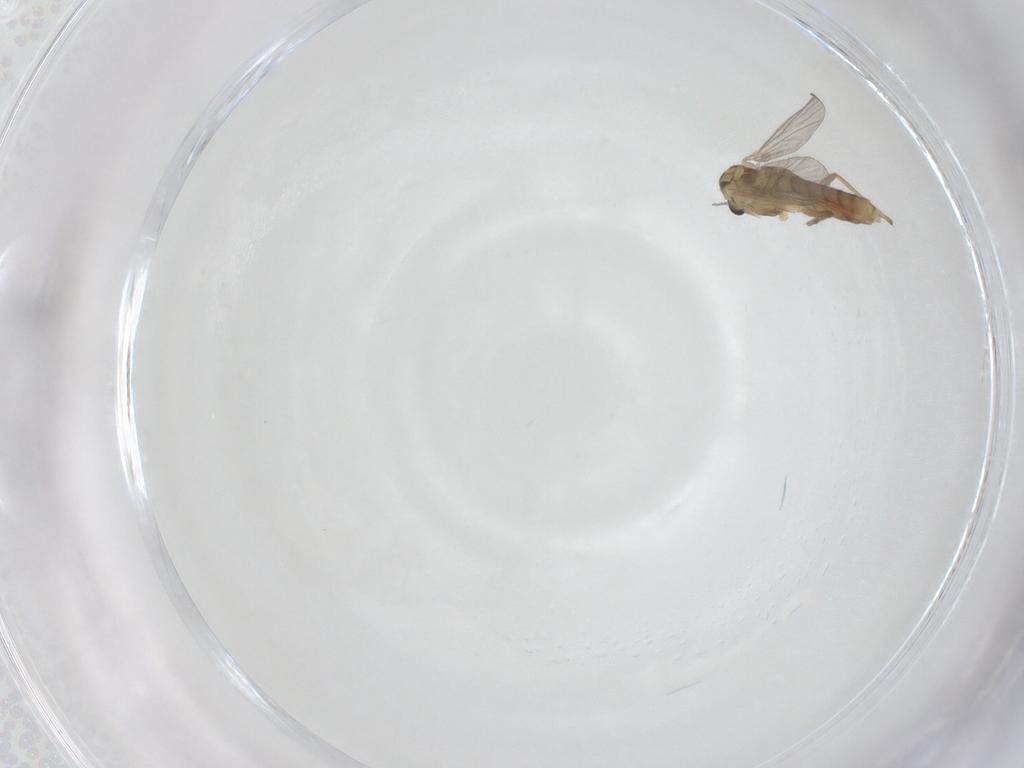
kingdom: Animalia
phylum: Arthropoda
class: Insecta
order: Diptera
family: Chironomidae
